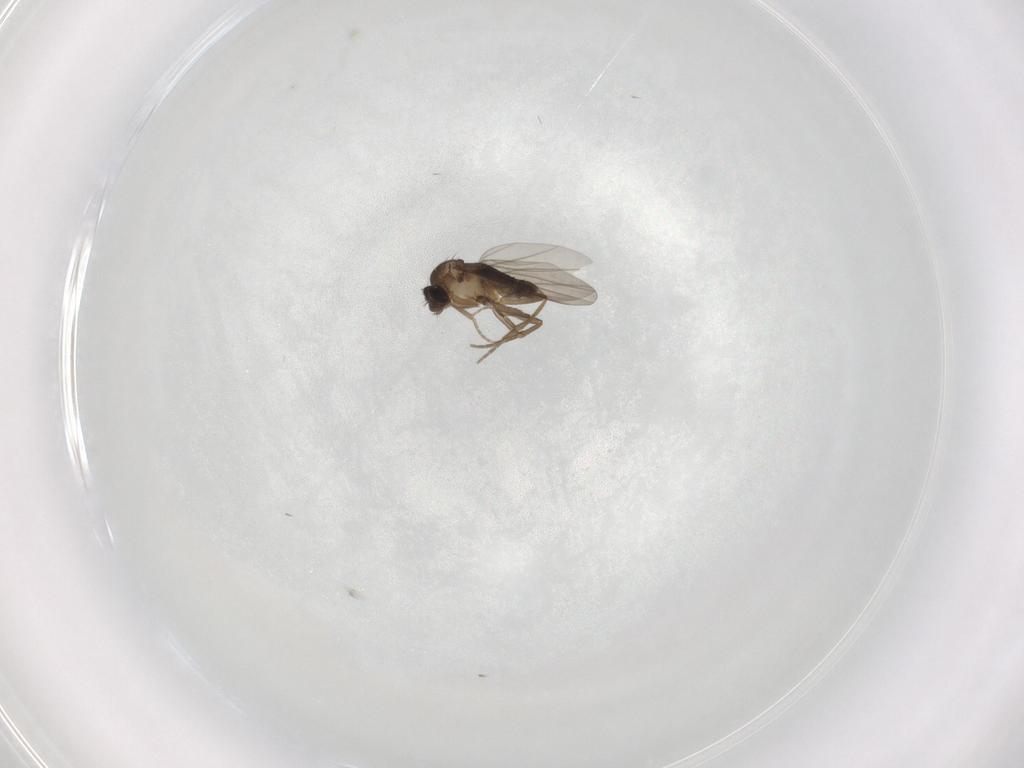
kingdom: Animalia
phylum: Arthropoda
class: Insecta
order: Diptera
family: Phoridae
